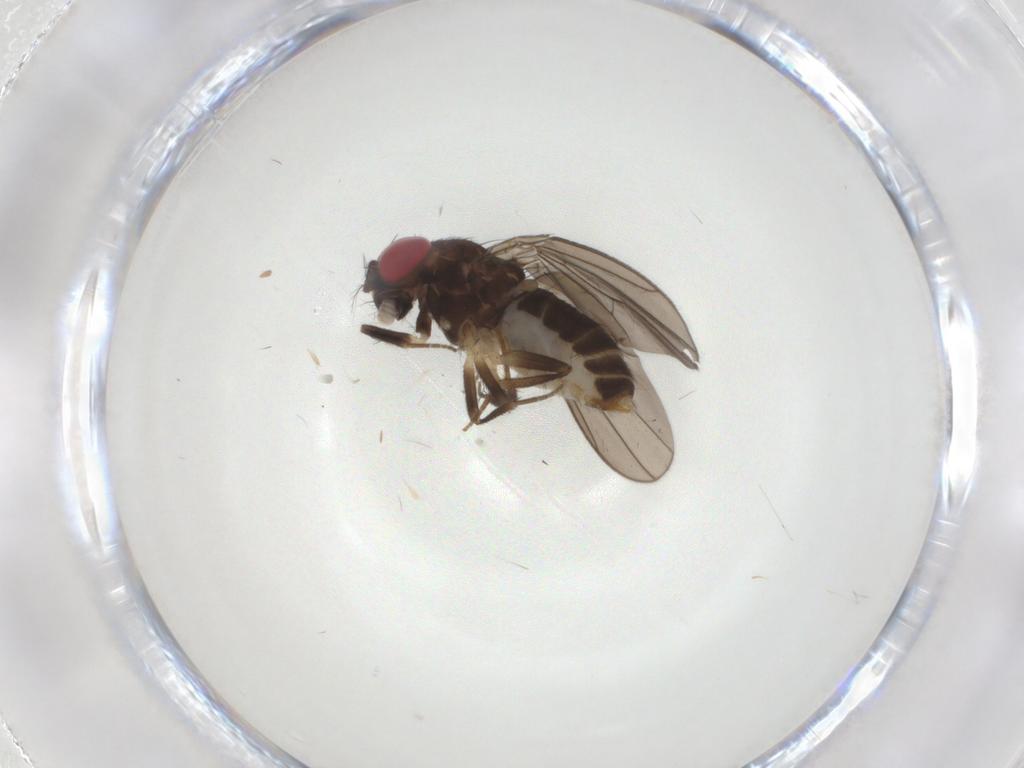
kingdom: Animalia
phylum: Arthropoda
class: Insecta
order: Diptera
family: Drosophilidae
